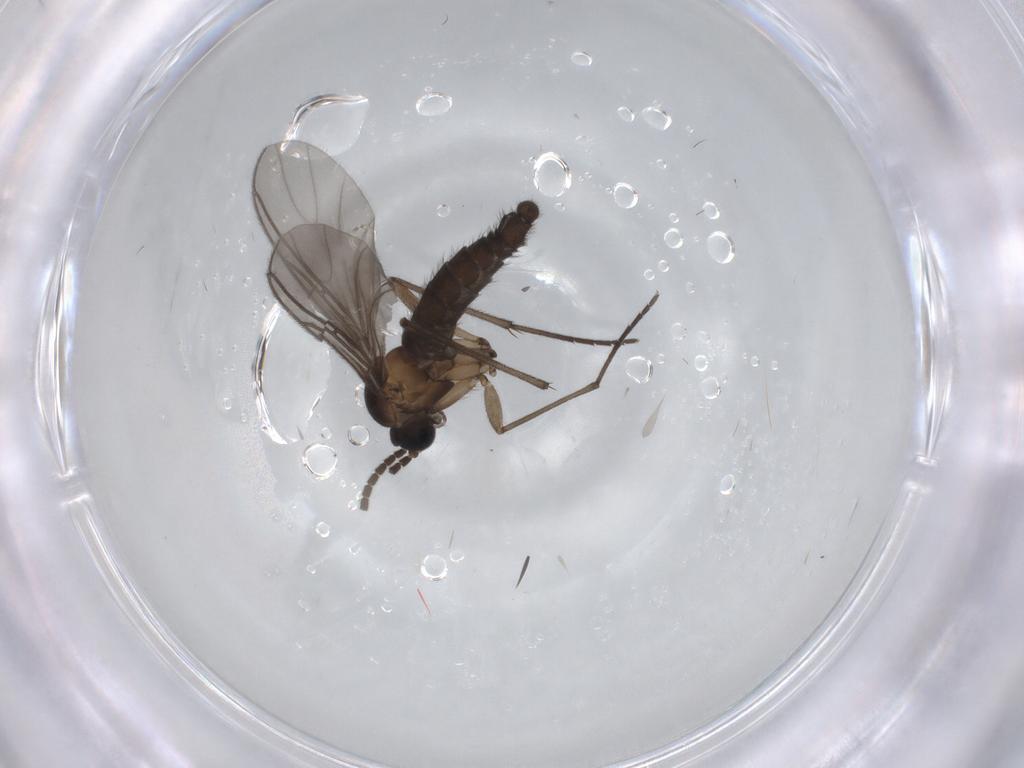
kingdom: Animalia
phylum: Arthropoda
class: Insecta
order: Diptera
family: Sciaridae
